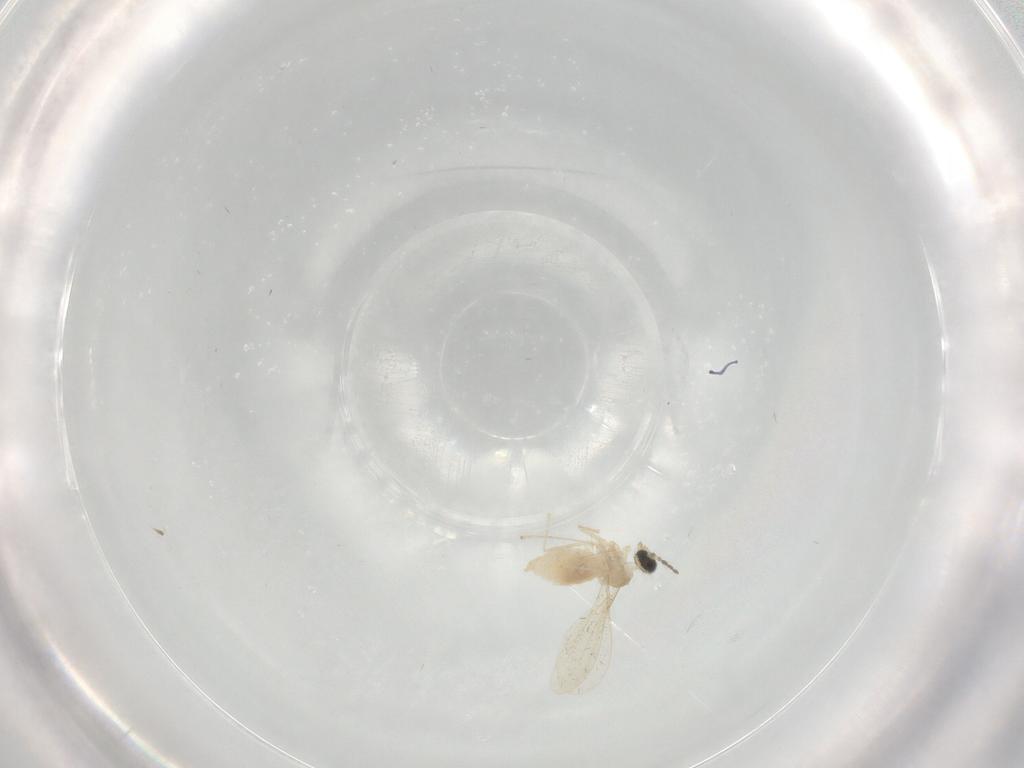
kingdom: Animalia
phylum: Arthropoda
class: Insecta
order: Diptera
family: Cecidomyiidae
